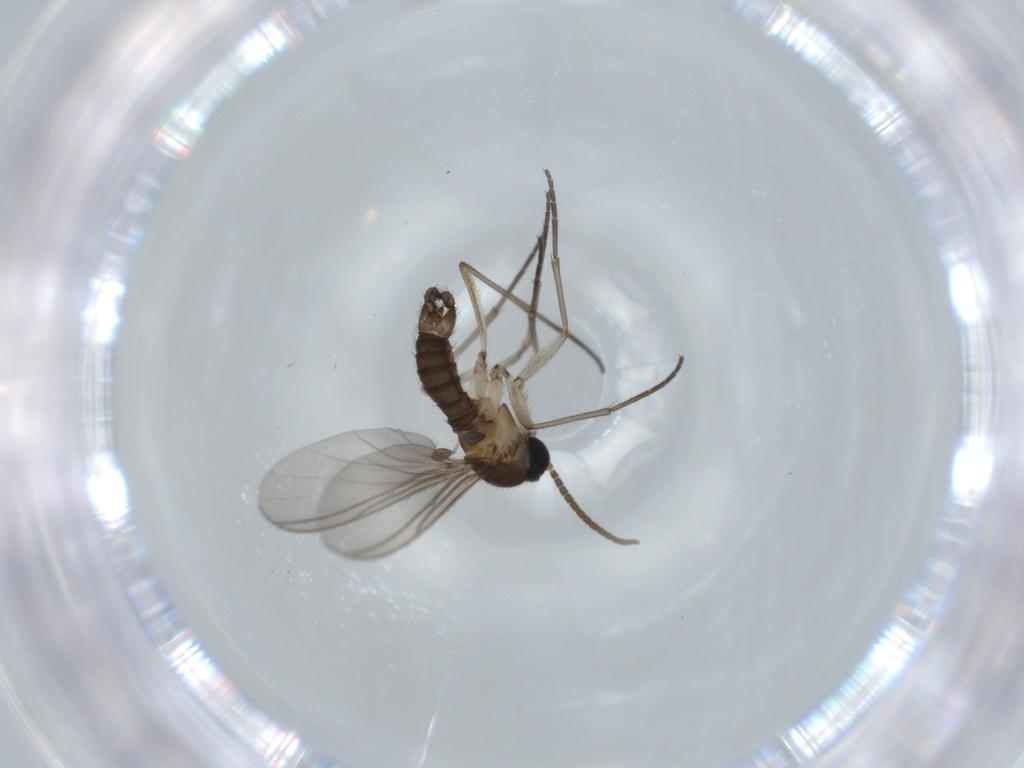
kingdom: Animalia
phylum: Arthropoda
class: Insecta
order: Diptera
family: Sciaridae
